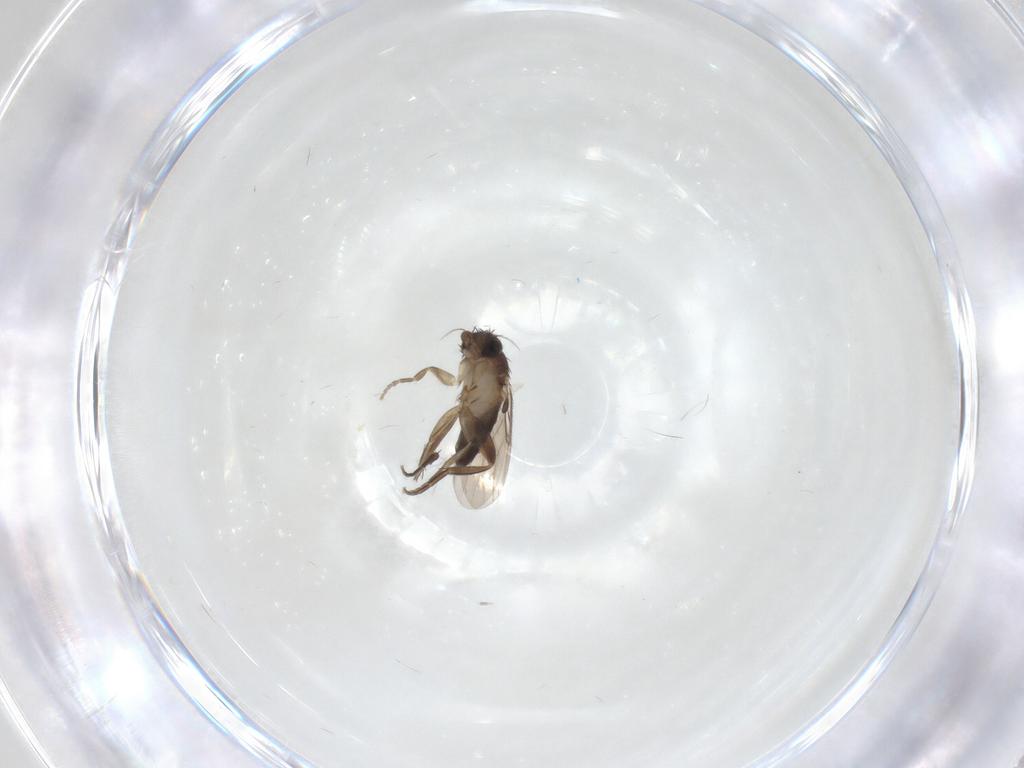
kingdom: Animalia
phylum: Arthropoda
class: Insecta
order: Diptera
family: Phoridae
